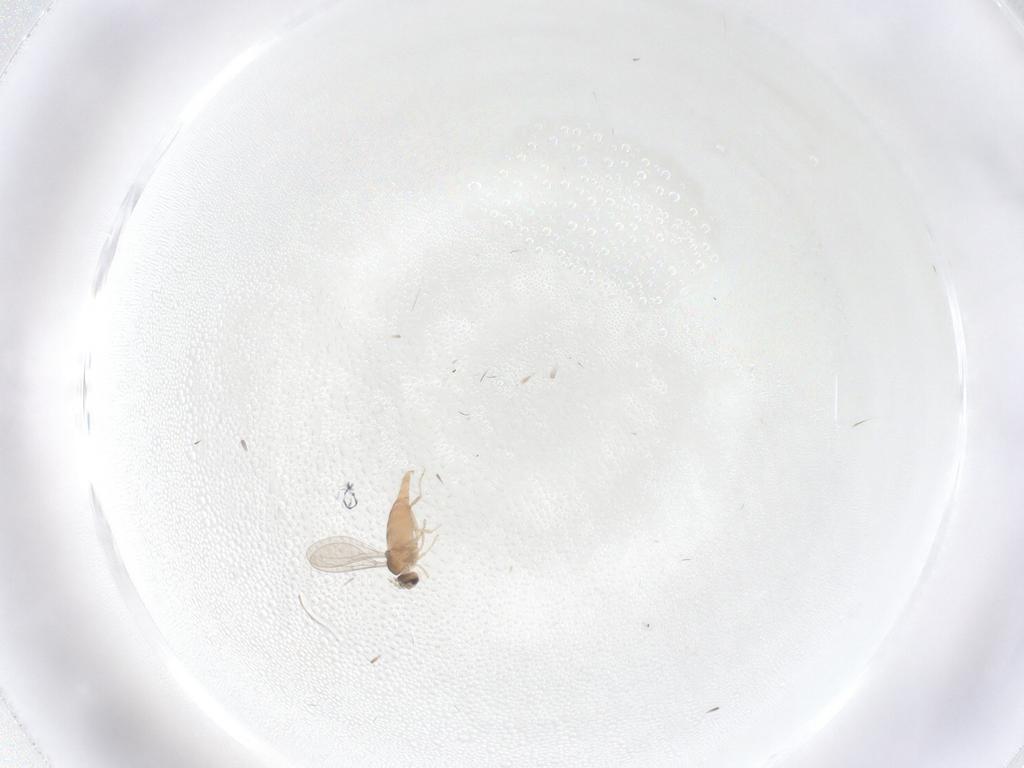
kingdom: Animalia
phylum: Arthropoda
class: Insecta
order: Diptera
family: Cecidomyiidae
